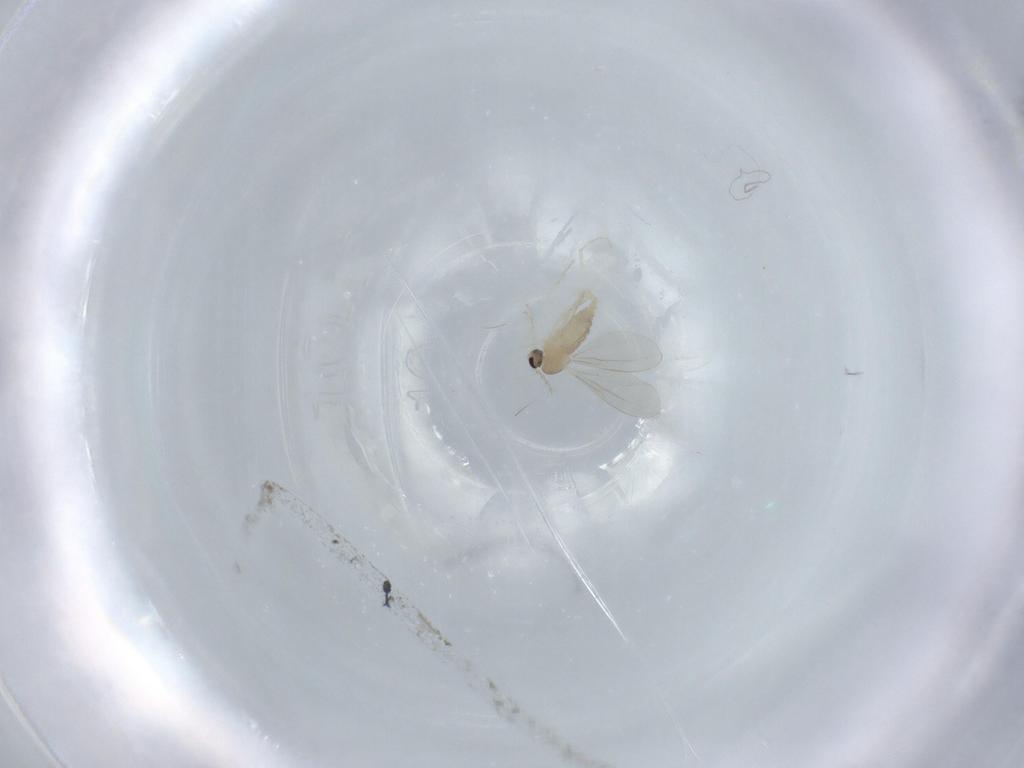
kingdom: Animalia
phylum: Arthropoda
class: Insecta
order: Diptera
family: Cecidomyiidae
